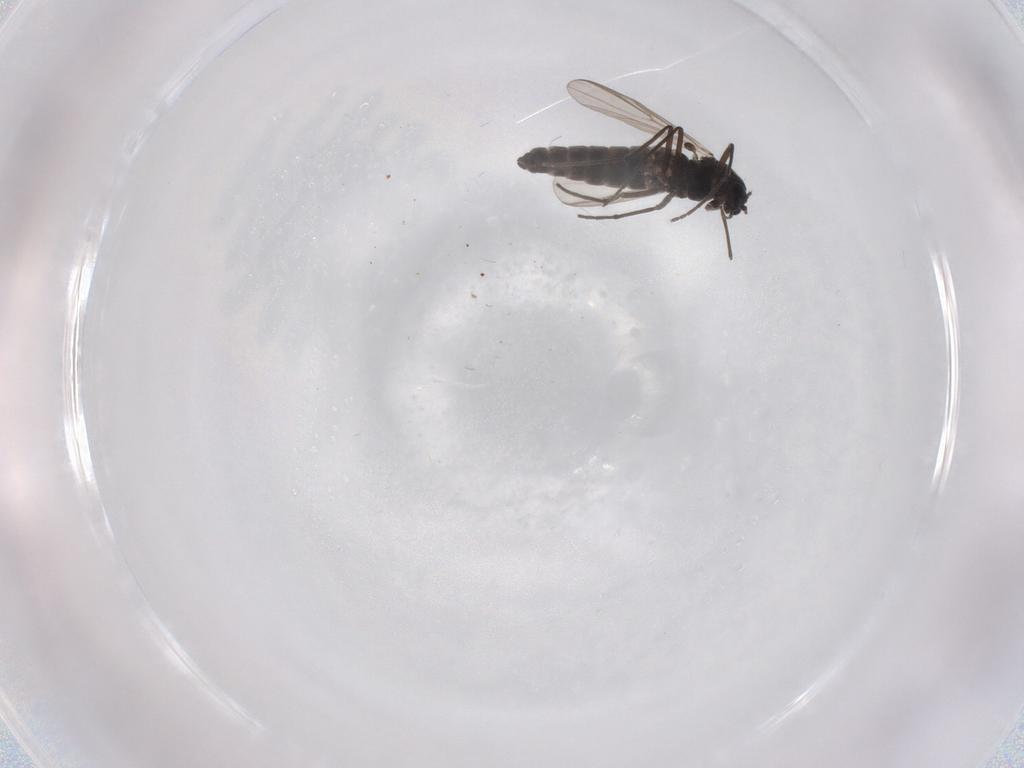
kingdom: Animalia
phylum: Arthropoda
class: Insecta
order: Diptera
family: Chironomidae
